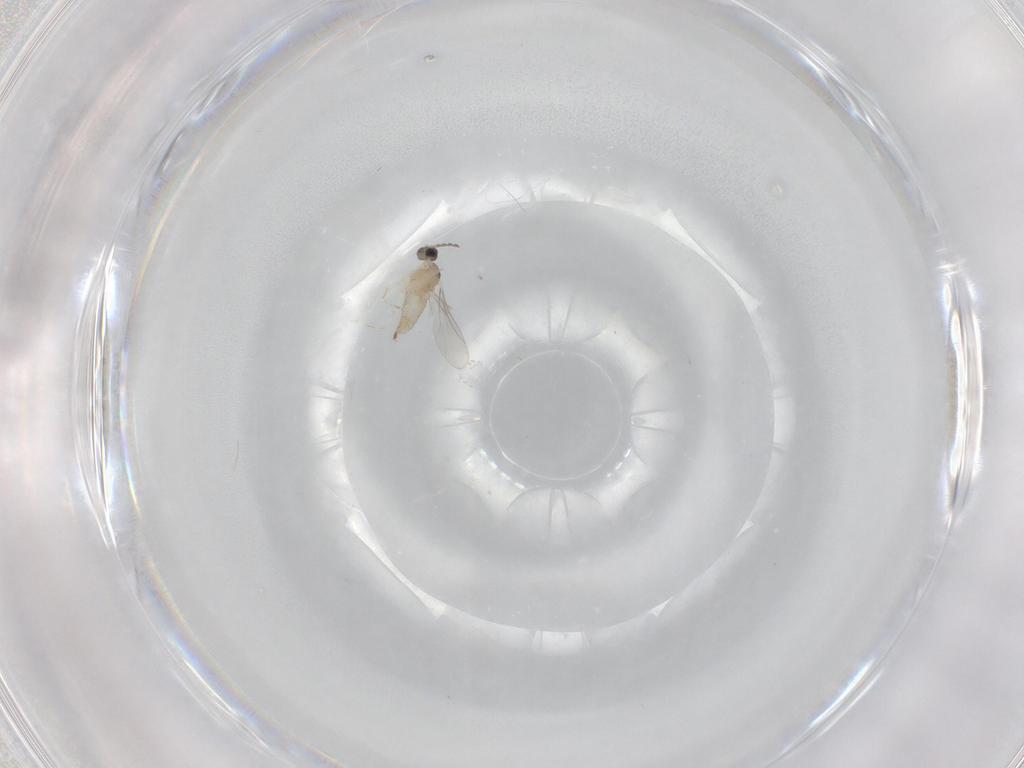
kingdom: Animalia
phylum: Arthropoda
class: Insecta
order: Diptera
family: Cecidomyiidae
